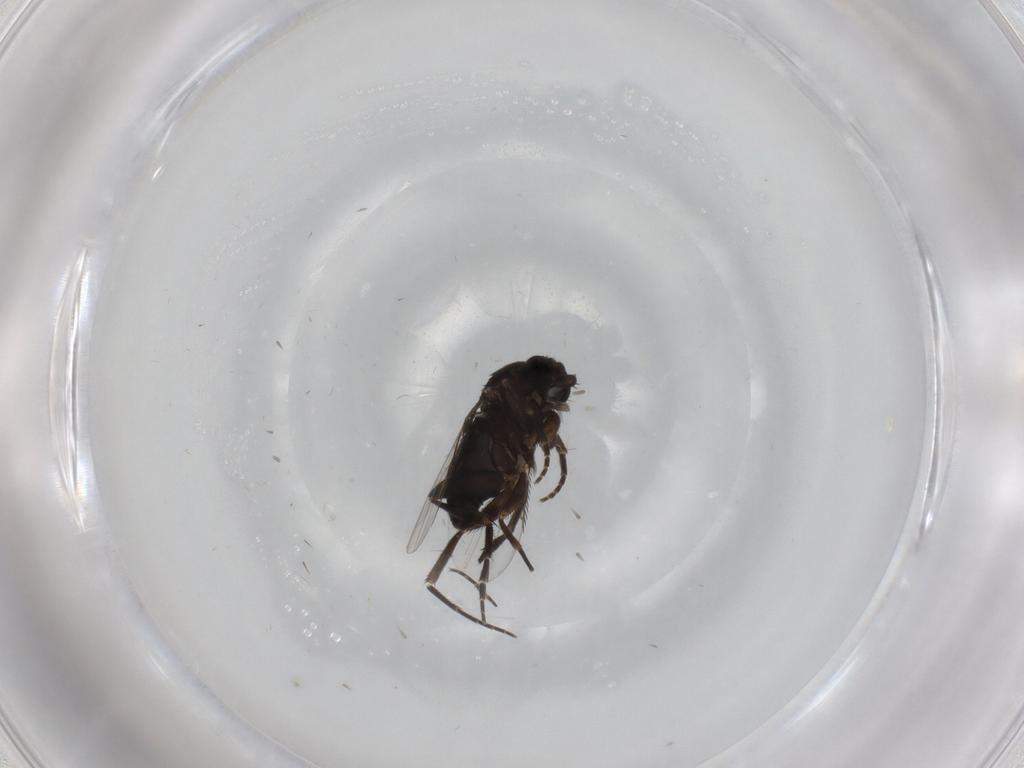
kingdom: Animalia
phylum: Arthropoda
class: Insecta
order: Diptera
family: Phoridae
